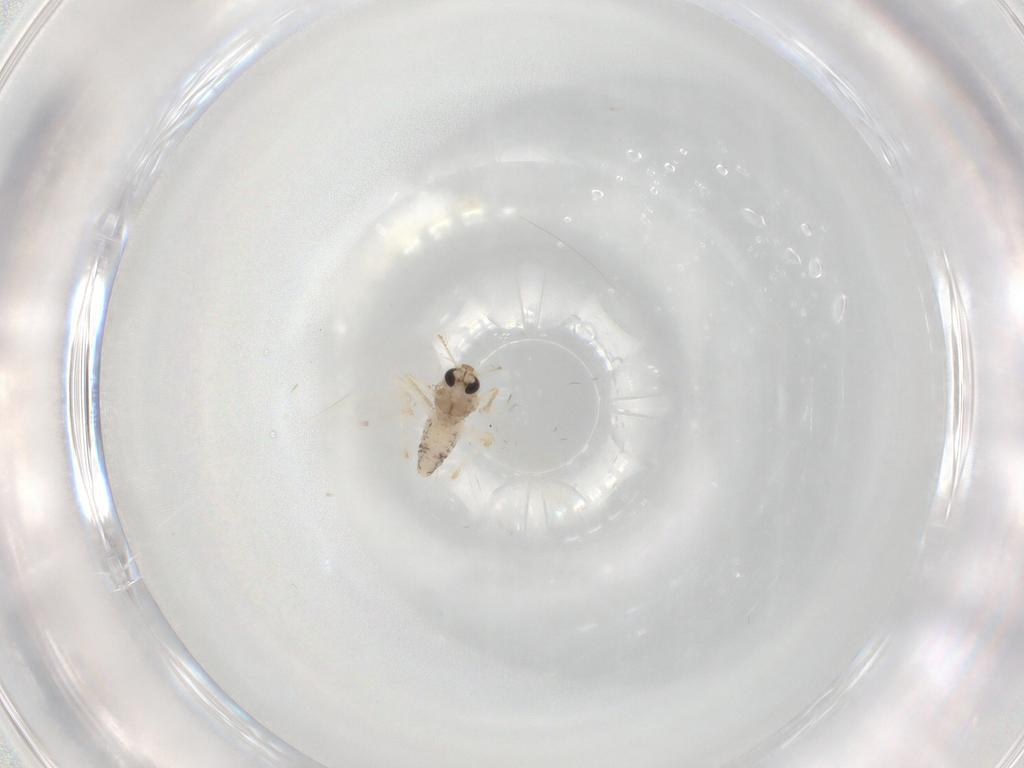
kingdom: Animalia
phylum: Arthropoda
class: Insecta
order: Diptera
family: Chironomidae
